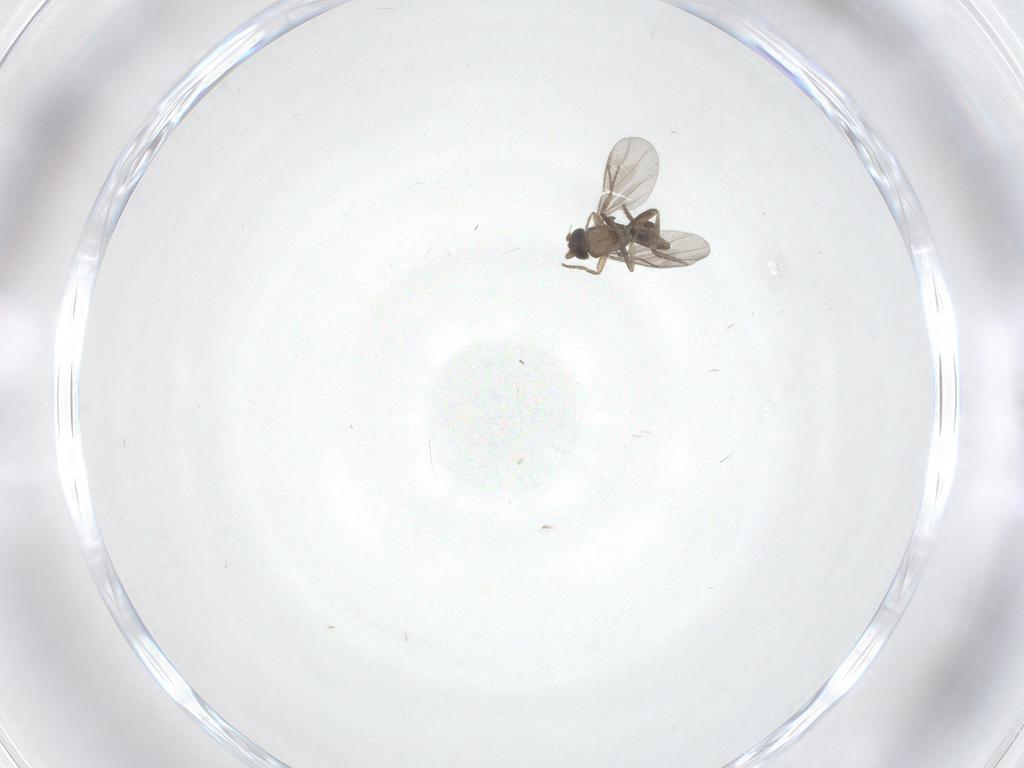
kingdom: Animalia
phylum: Arthropoda
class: Insecta
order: Diptera
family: Dolichopodidae
